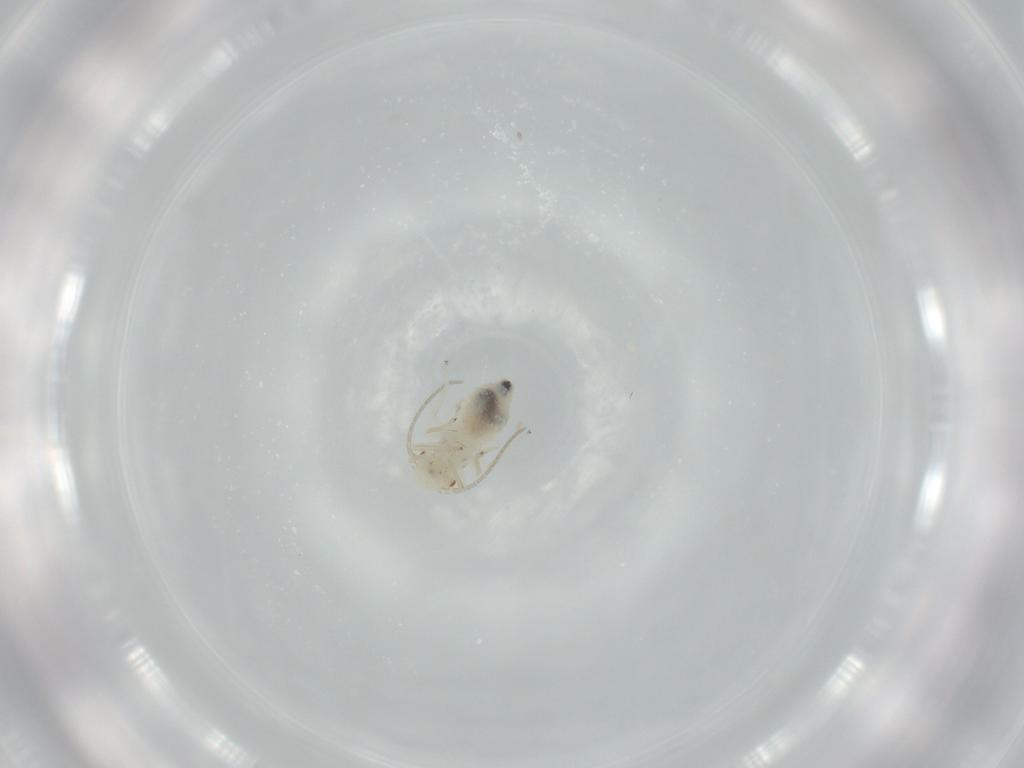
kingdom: Animalia
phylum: Arthropoda
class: Insecta
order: Psocodea
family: Caeciliusidae
